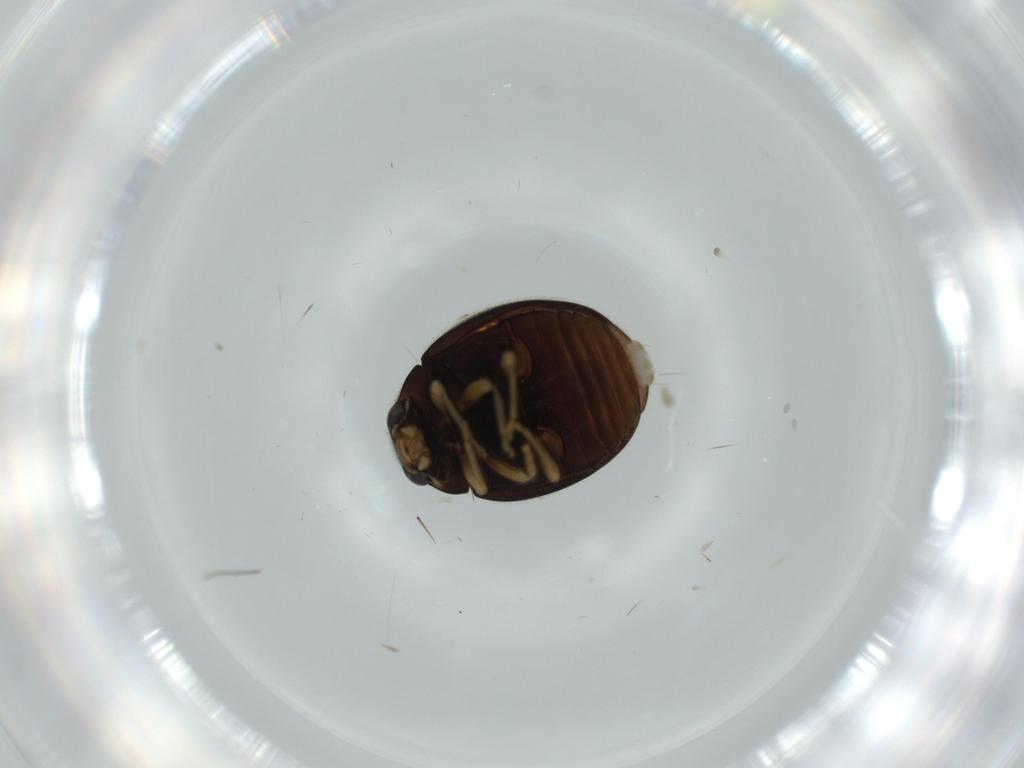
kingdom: Animalia
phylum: Arthropoda
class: Insecta
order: Coleoptera
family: Coccinellidae
